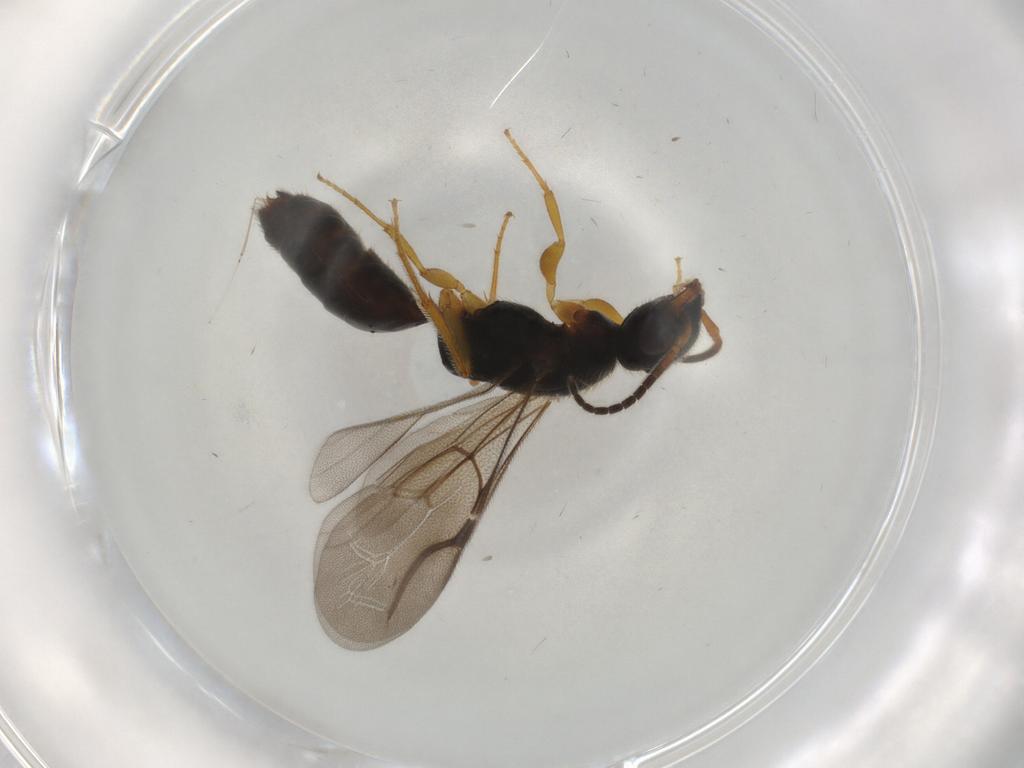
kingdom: Animalia
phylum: Arthropoda
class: Insecta
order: Hymenoptera
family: Bethylidae
